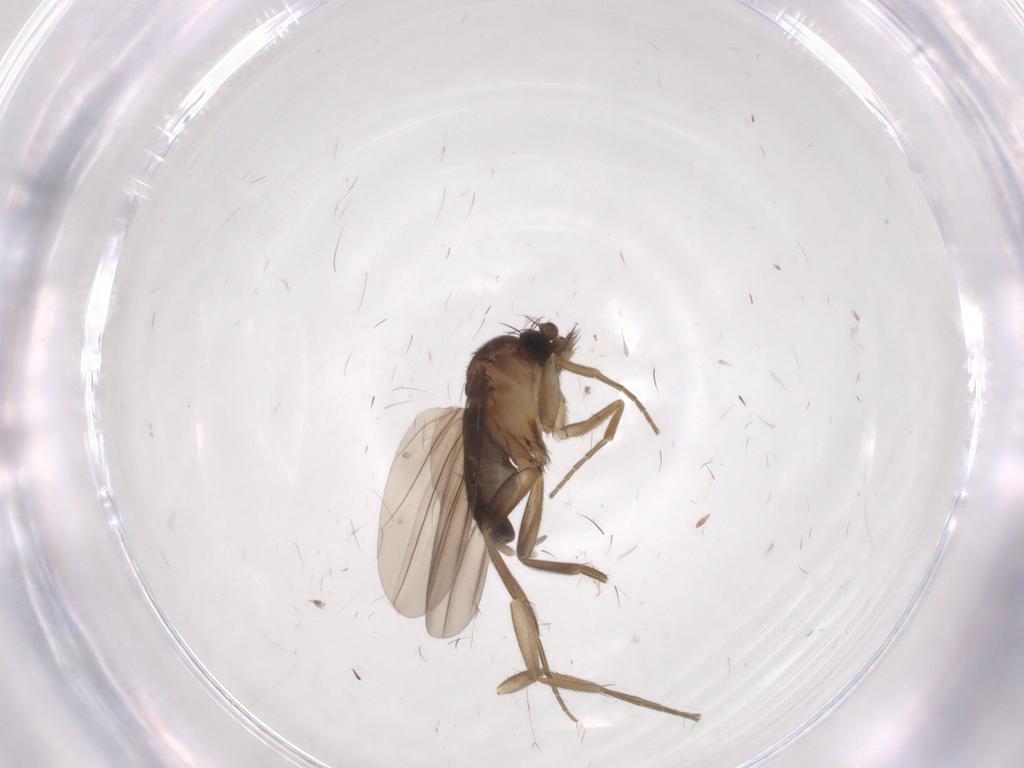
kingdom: Animalia
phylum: Arthropoda
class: Insecta
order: Diptera
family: Phoridae
